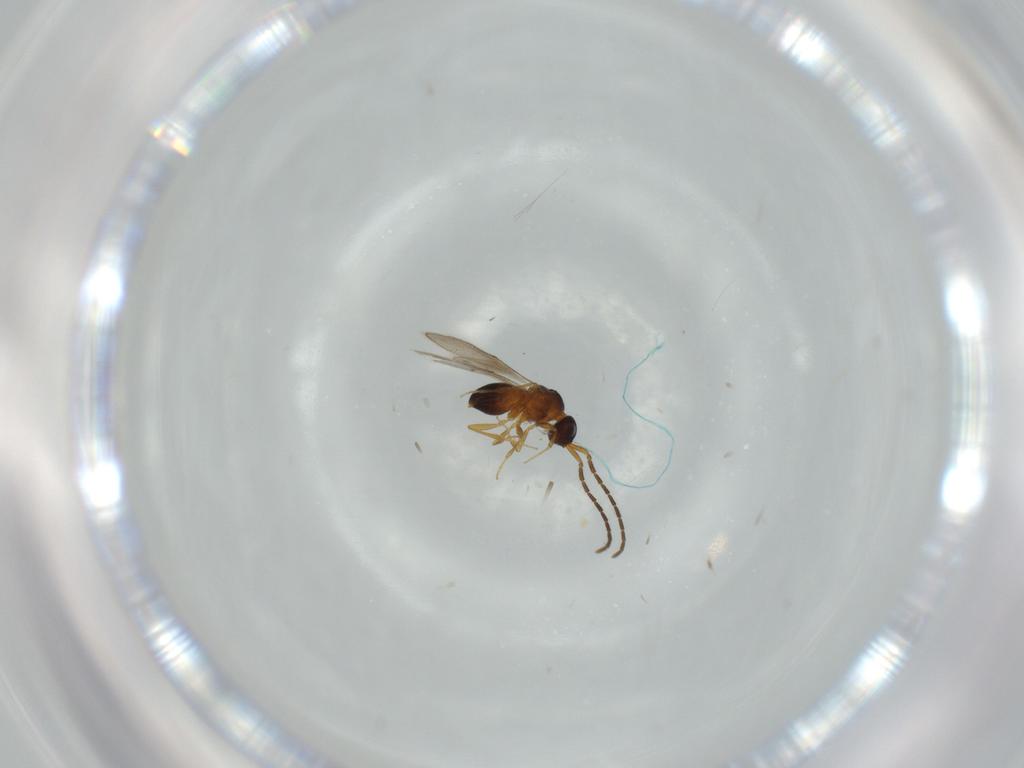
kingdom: Animalia
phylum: Arthropoda
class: Insecta
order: Hymenoptera
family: Megaspilidae
